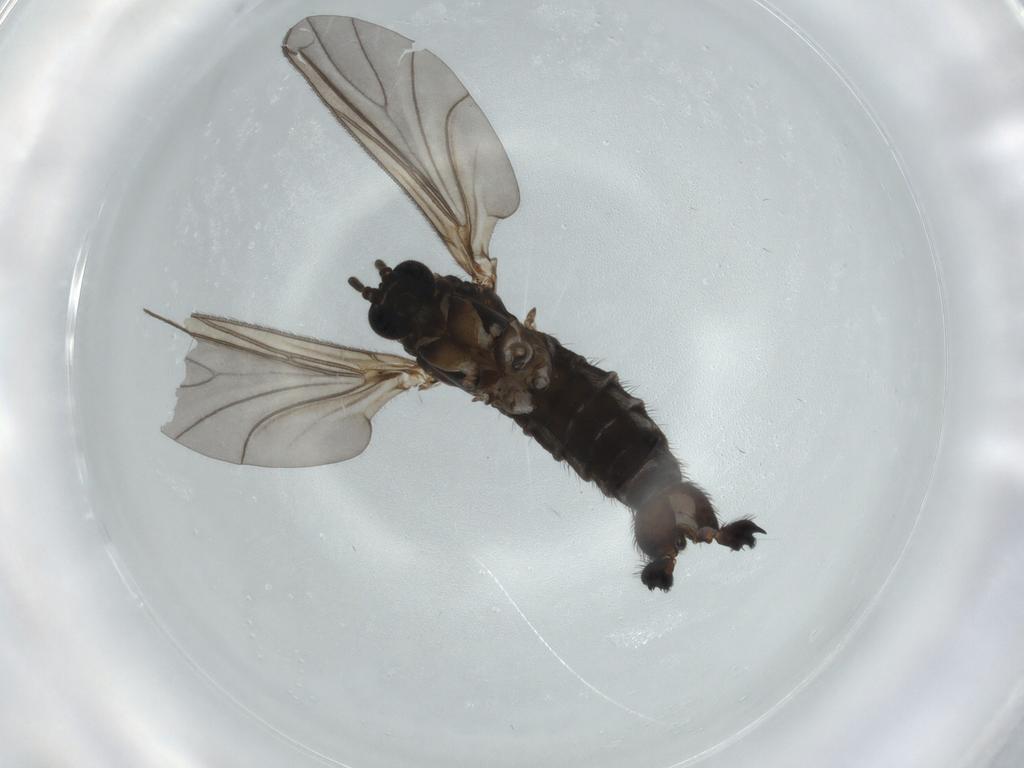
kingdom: Animalia
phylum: Arthropoda
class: Insecta
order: Diptera
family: Sciaridae
